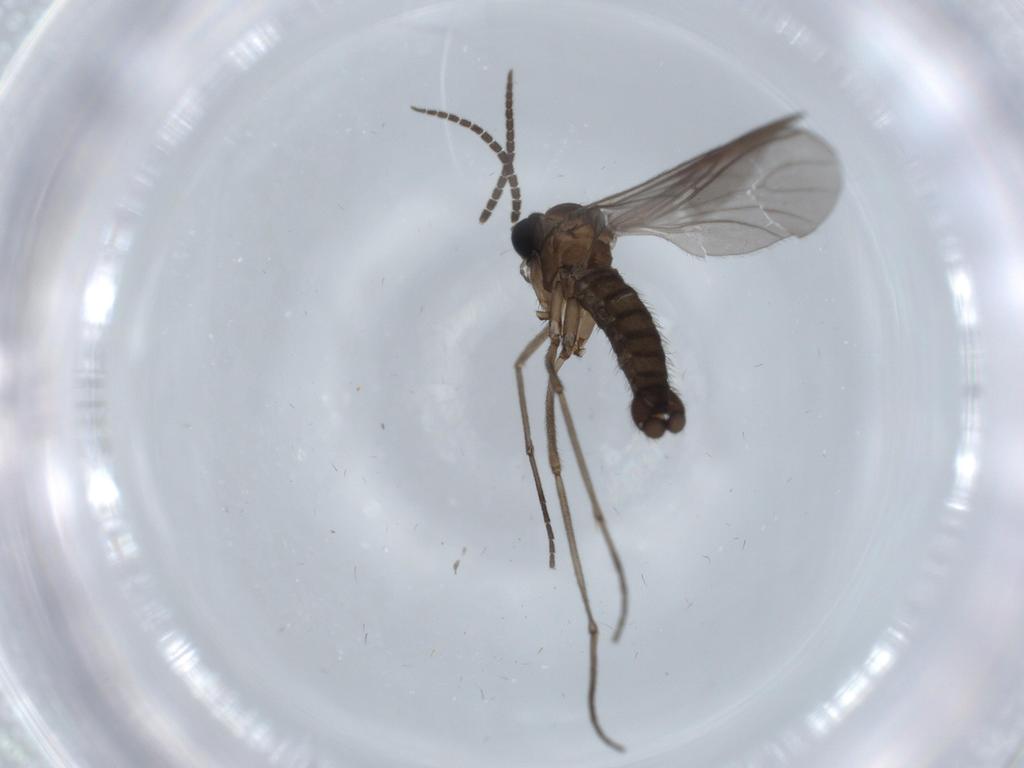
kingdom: Animalia
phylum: Arthropoda
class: Insecta
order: Diptera
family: Sciaridae
